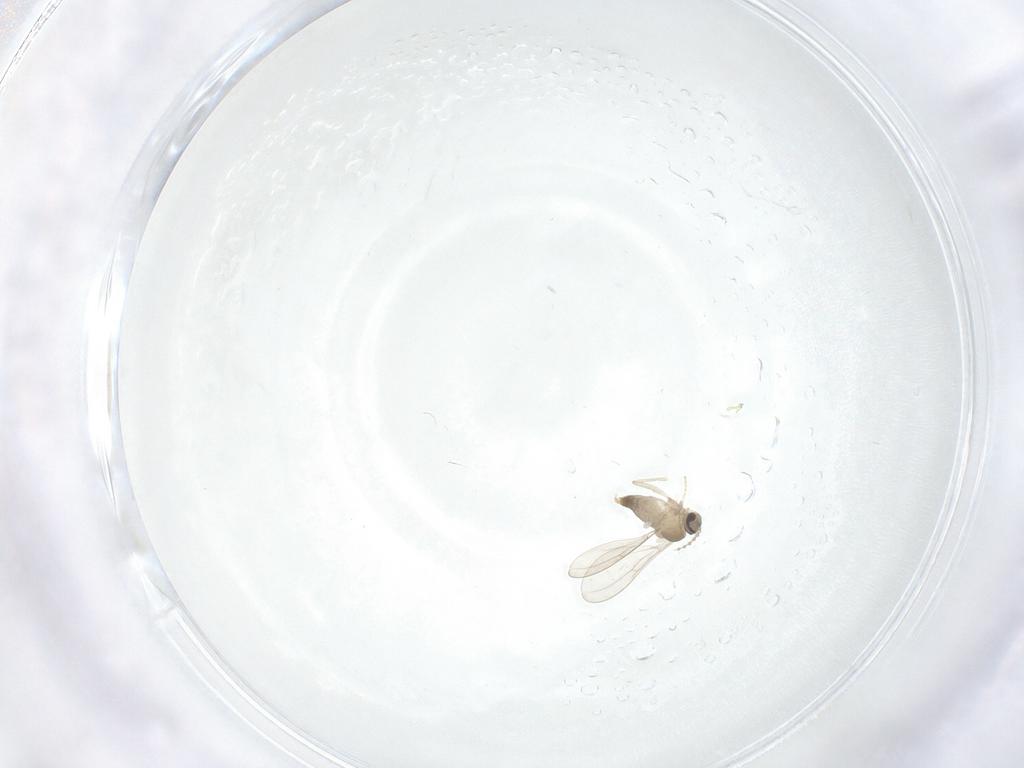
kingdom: Animalia
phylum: Arthropoda
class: Insecta
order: Diptera
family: Cecidomyiidae
